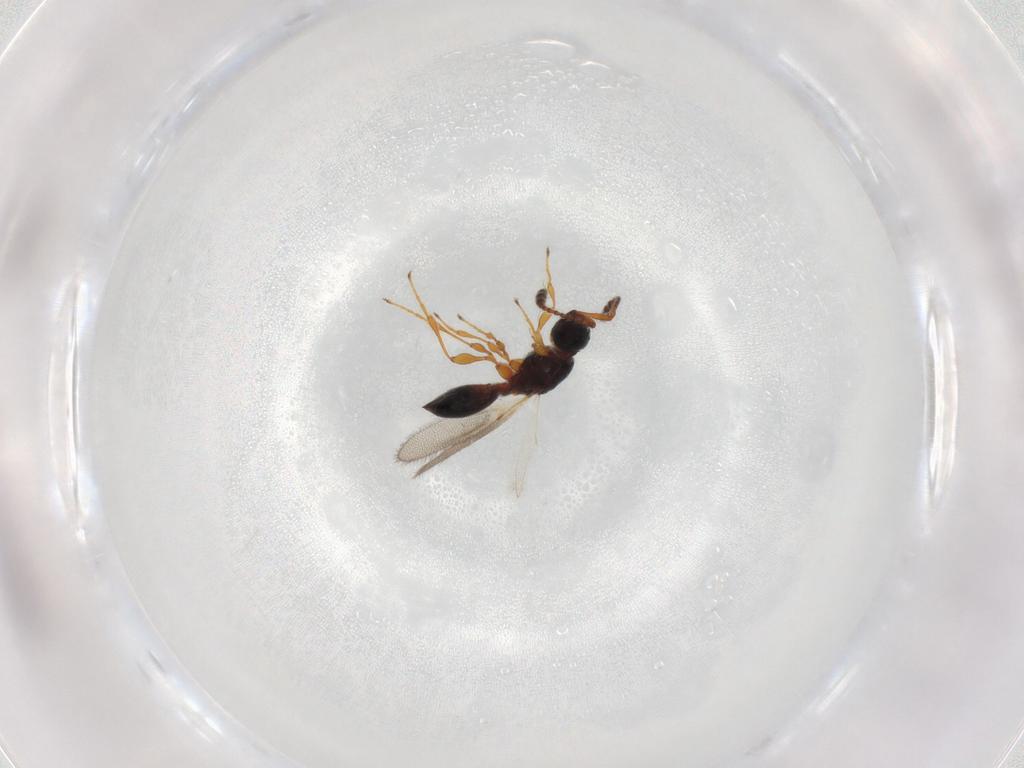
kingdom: Animalia
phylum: Arthropoda
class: Insecta
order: Hymenoptera
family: Diapriidae
